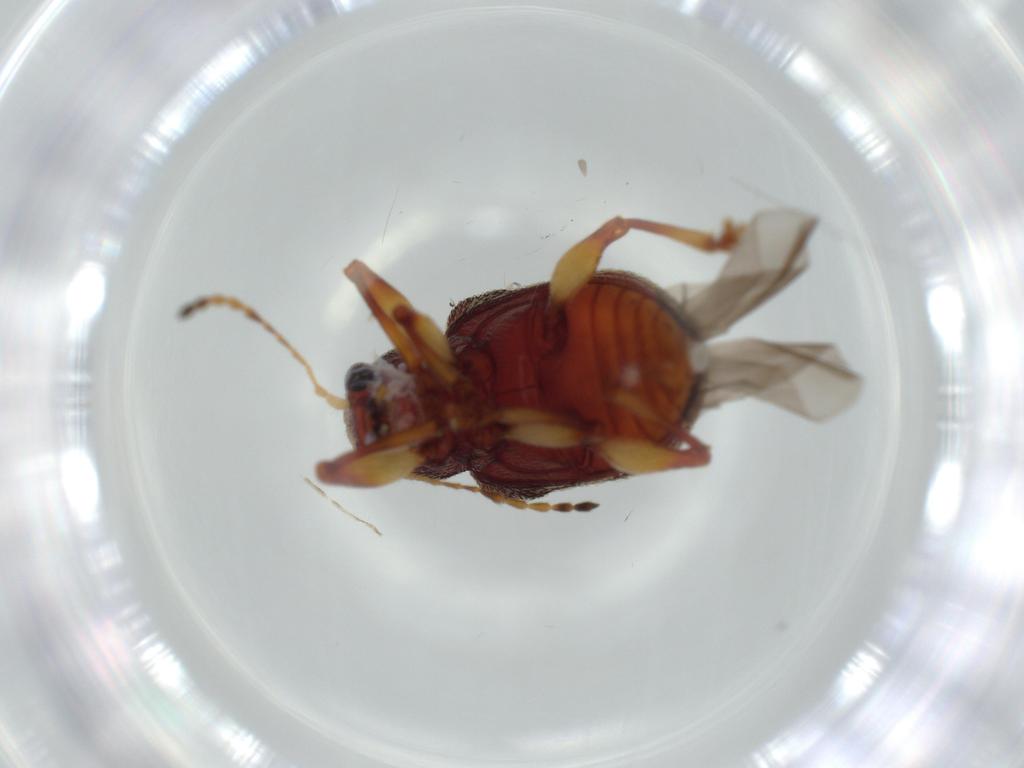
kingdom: Animalia
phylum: Arthropoda
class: Insecta
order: Coleoptera
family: Chrysomelidae
